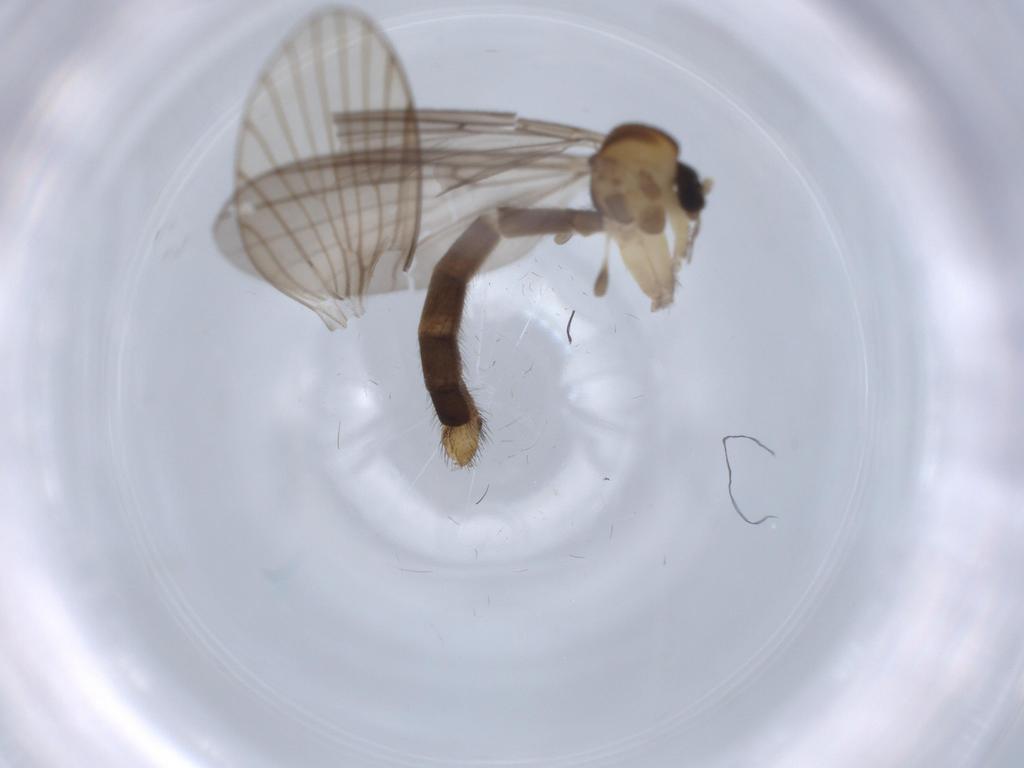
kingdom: Animalia
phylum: Arthropoda
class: Insecta
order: Diptera
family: Mycetophilidae
